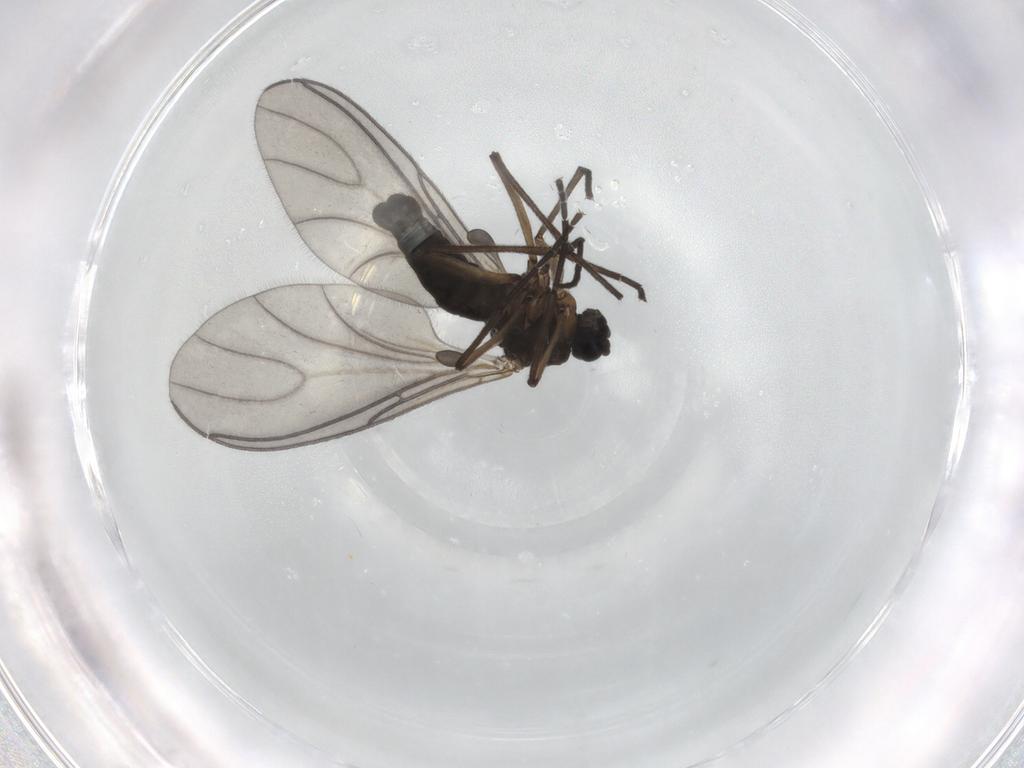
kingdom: Animalia
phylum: Arthropoda
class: Insecta
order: Diptera
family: Sciaridae
